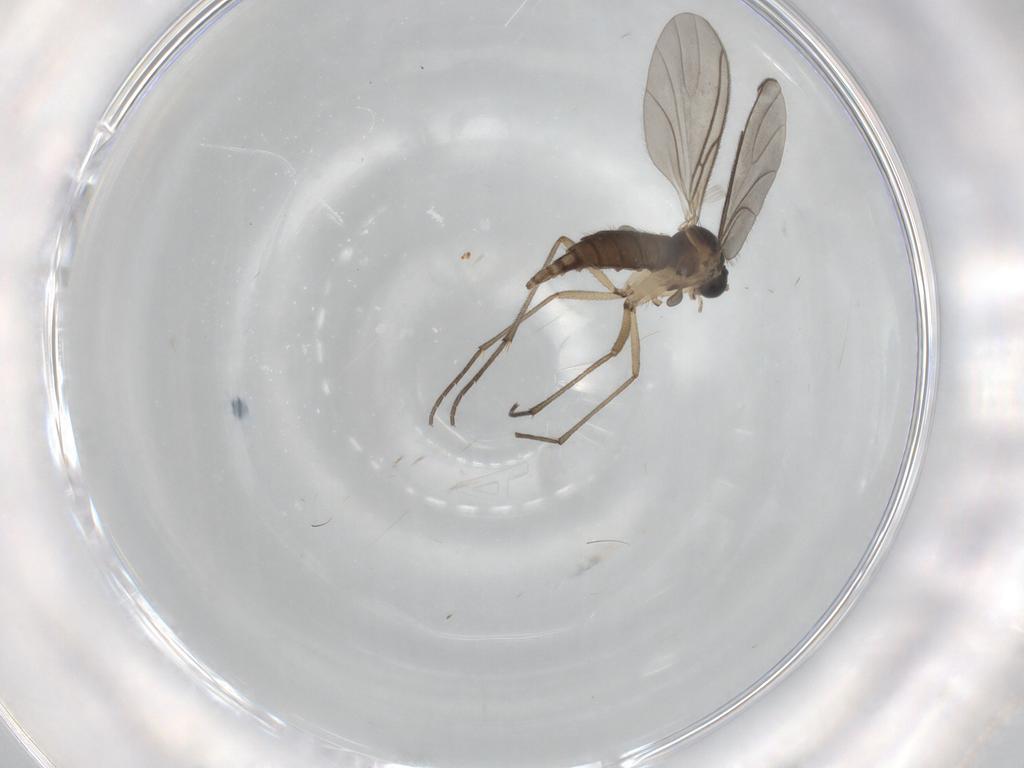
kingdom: Animalia
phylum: Arthropoda
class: Insecta
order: Diptera
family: Sciaridae
